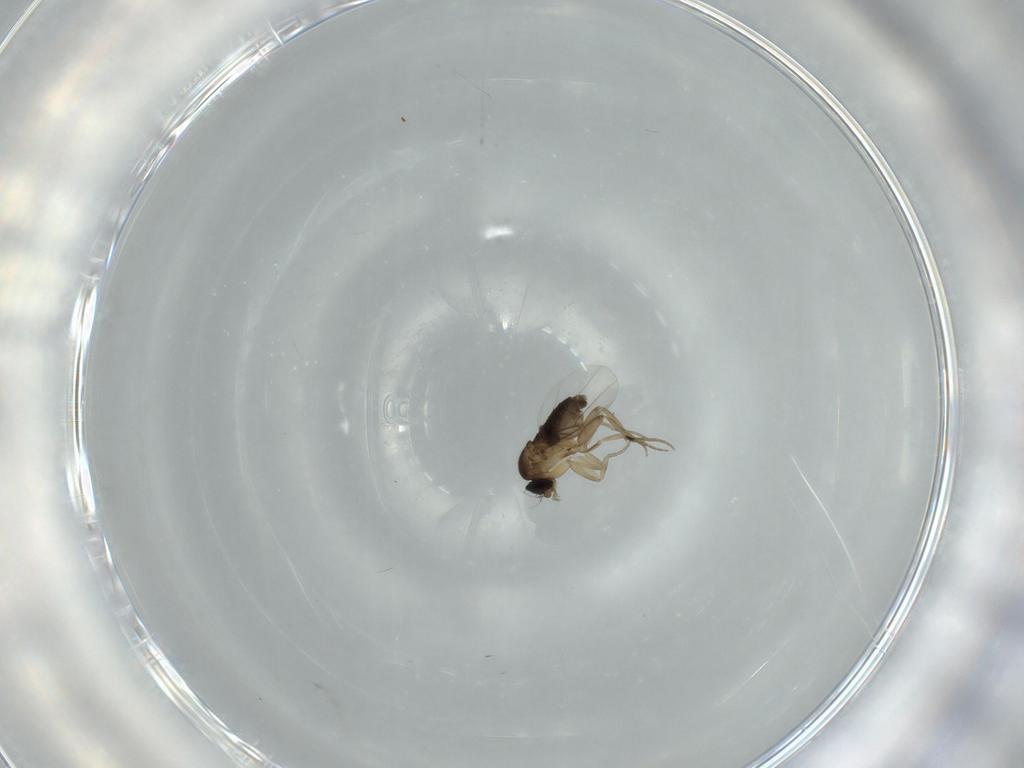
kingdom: Animalia
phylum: Arthropoda
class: Insecta
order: Diptera
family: Phoridae
